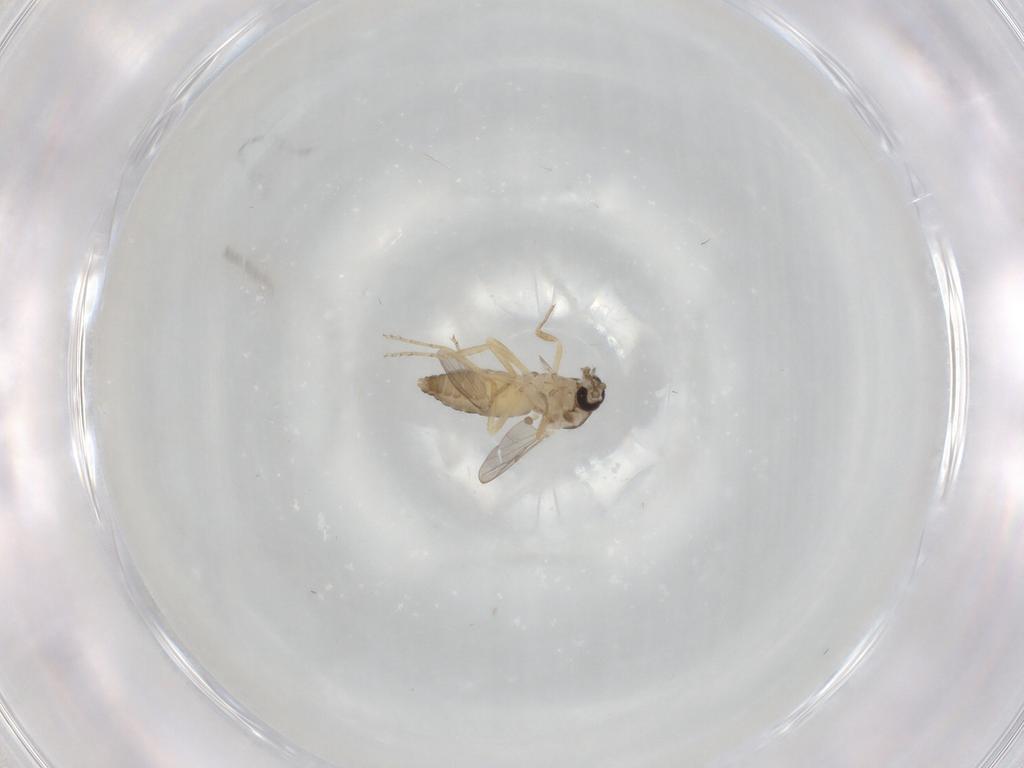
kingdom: Animalia
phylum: Arthropoda
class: Insecta
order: Diptera
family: Ceratopogonidae
